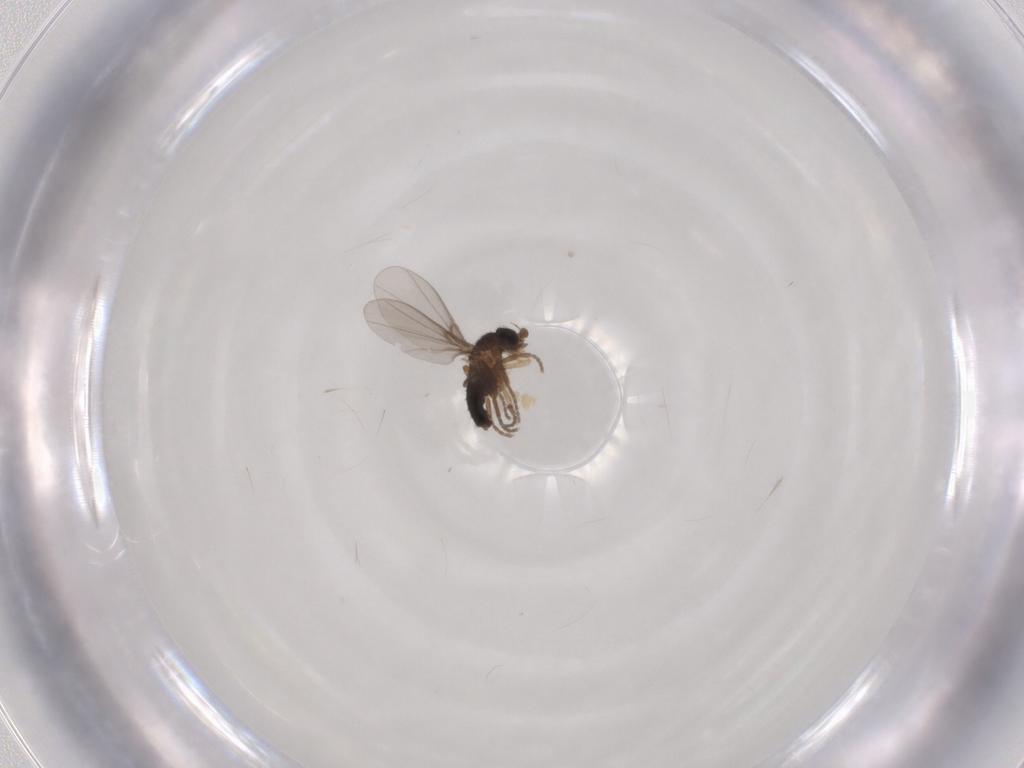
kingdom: Animalia
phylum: Arthropoda
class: Insecta
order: Diptera
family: Phoridae
